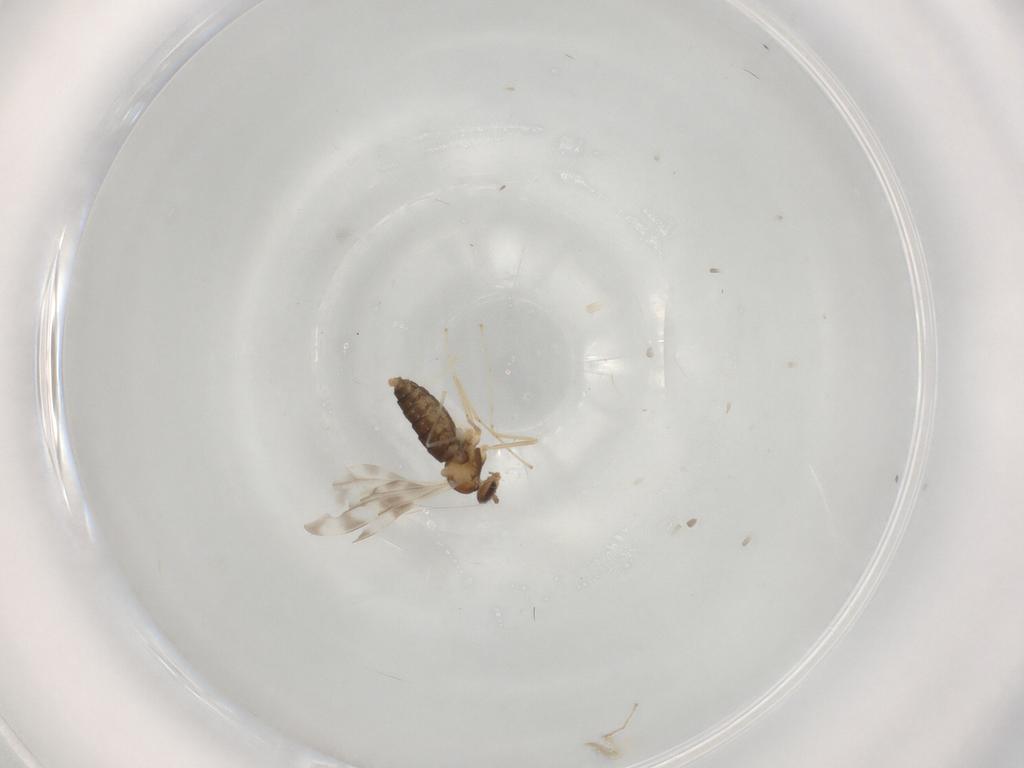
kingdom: Animalia
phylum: Arthropoda
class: Insecta
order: Diptera
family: Cecidomyiidae
